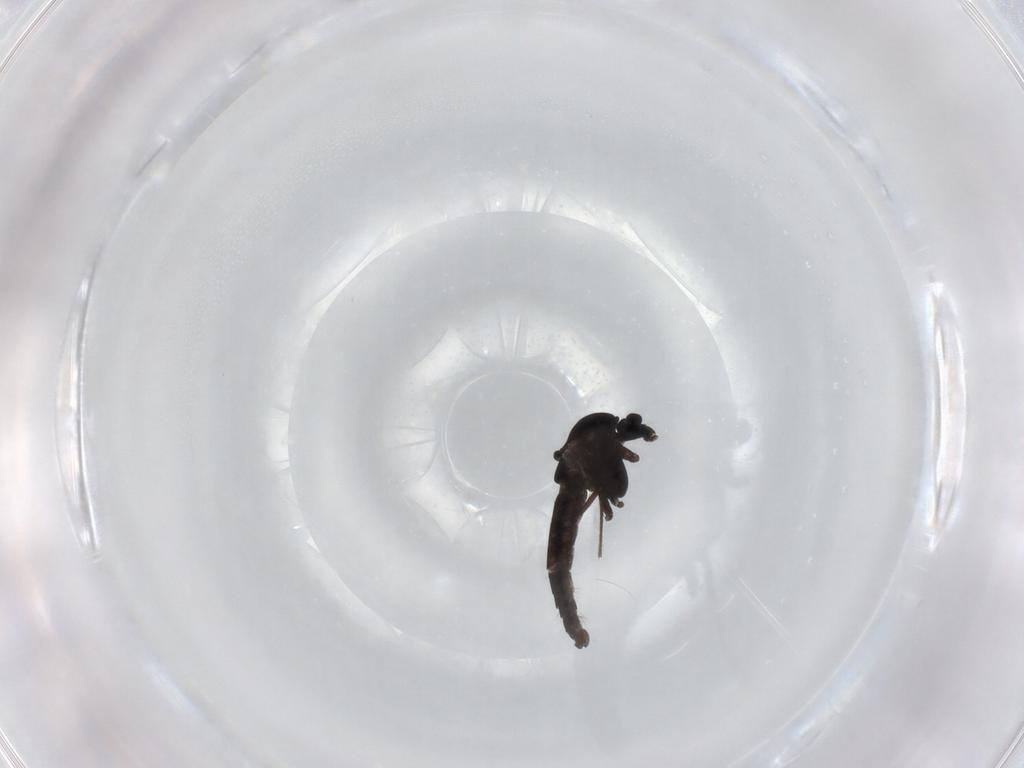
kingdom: Animalia
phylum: Arthropoda
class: Insecta
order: Diptera
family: Chironomidae
